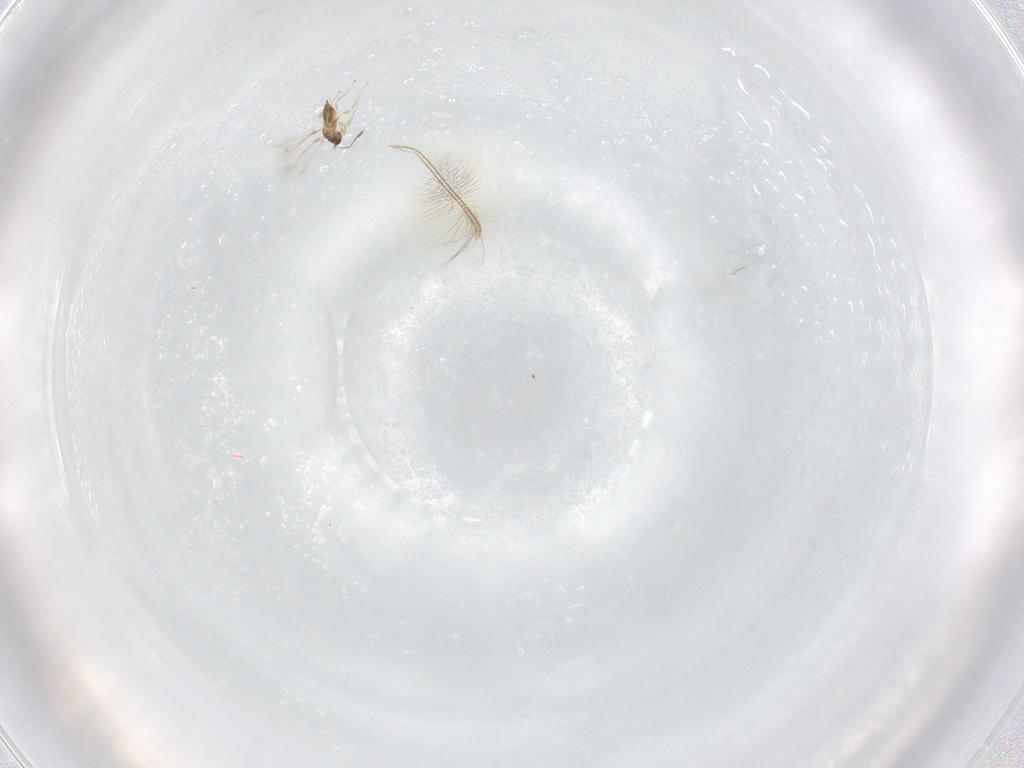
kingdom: Animalia
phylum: Arthropoda
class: Insecta
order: Diptera
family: Chironomidae
